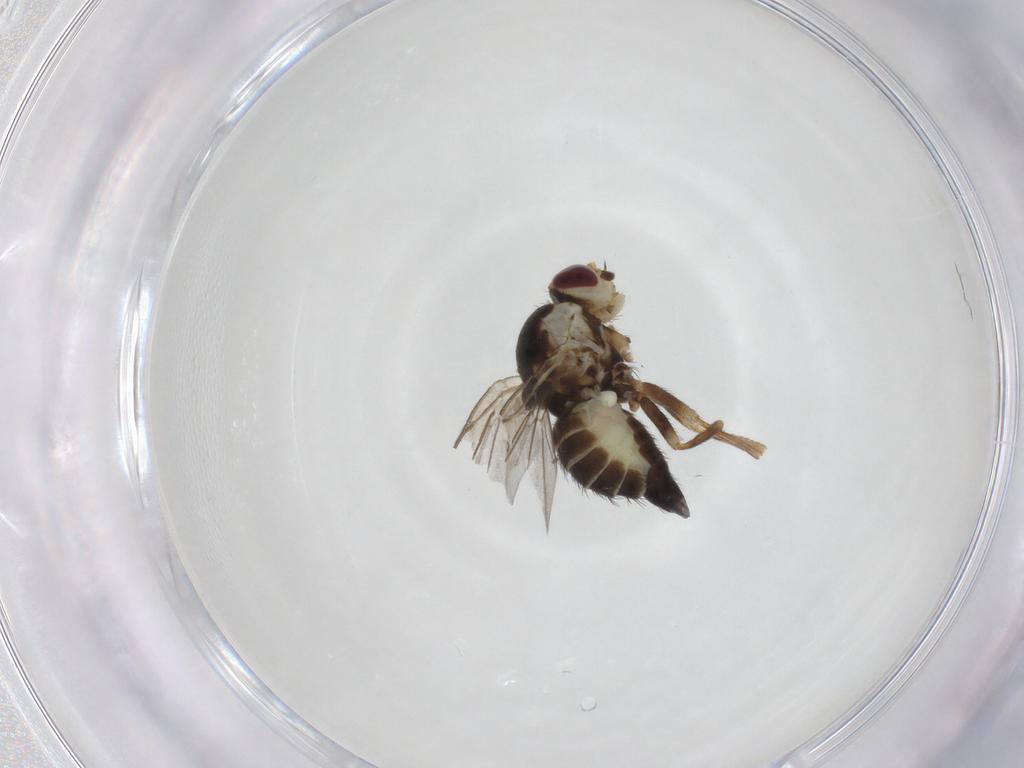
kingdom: Animalia
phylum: Arthropoda
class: Insecta
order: Diptera
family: Agromyzidae
